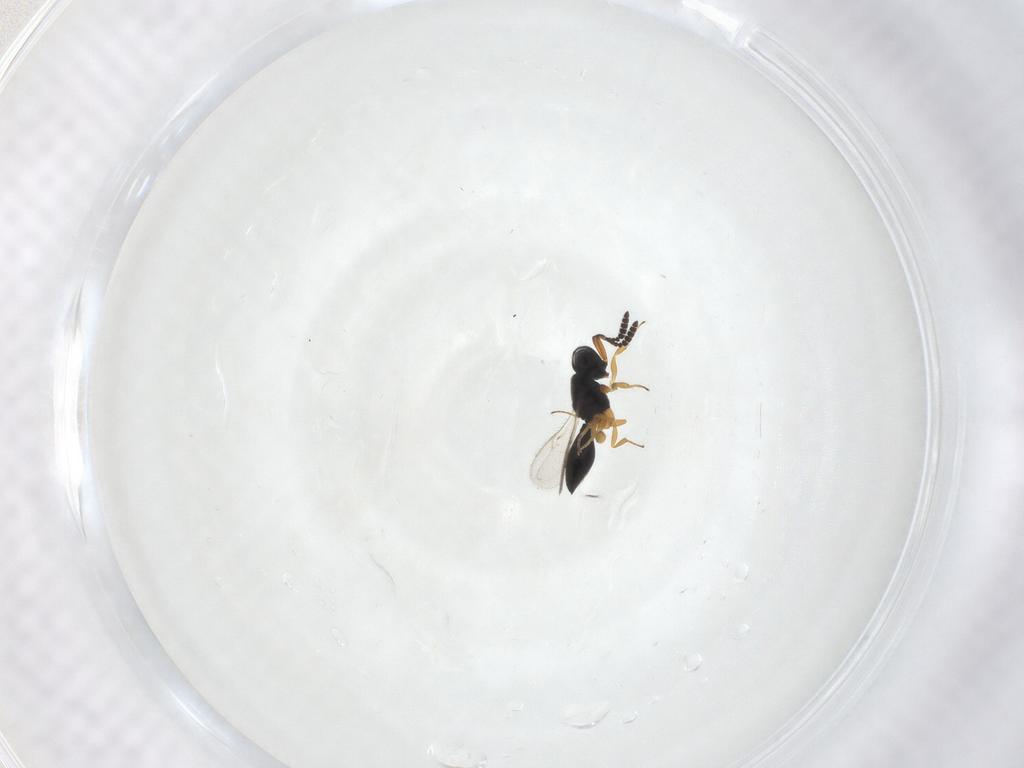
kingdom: Animalia
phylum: Arthropoda
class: Insecta
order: Hymenoptera
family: Scelionidae
